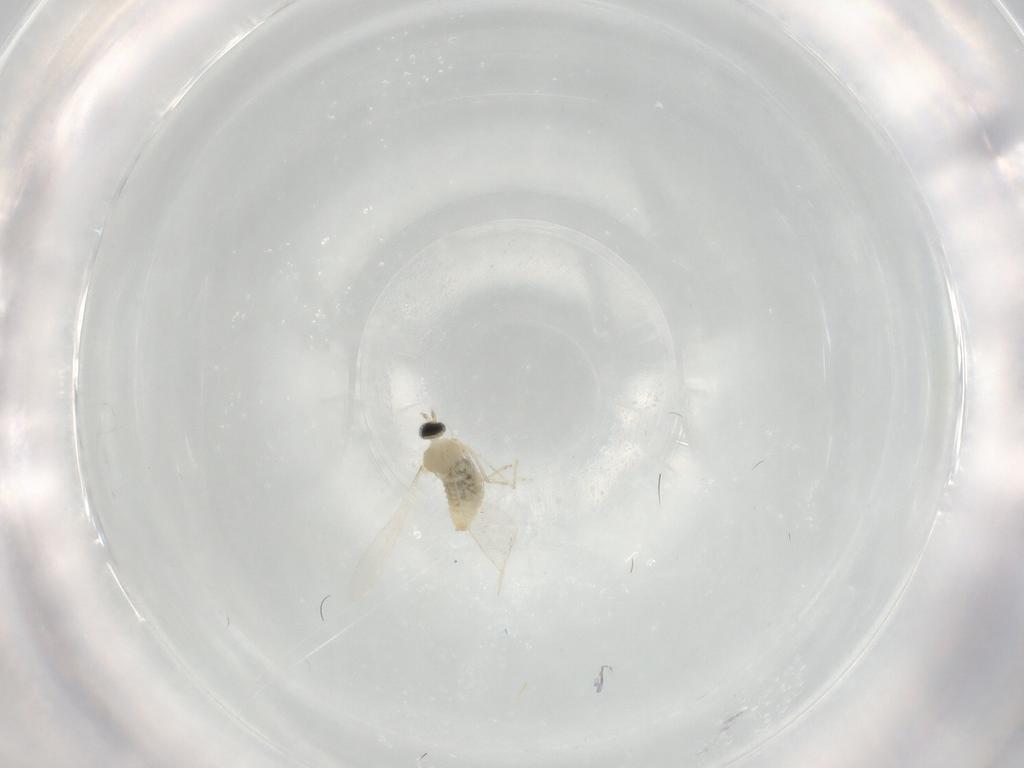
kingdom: Animalia
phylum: Arthropoda
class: Insecta
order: Diptera
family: Cecidomyiidae
